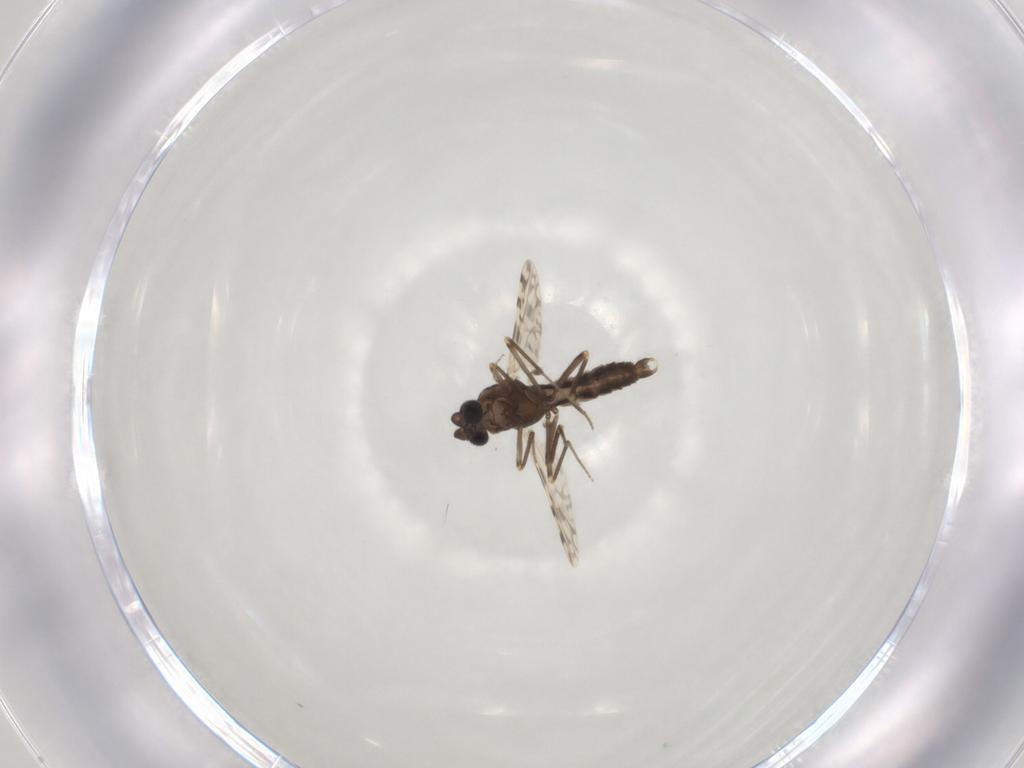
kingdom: Animalia
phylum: Arthropoda
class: Insecta
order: Diptera
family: Ceratopogonidae
